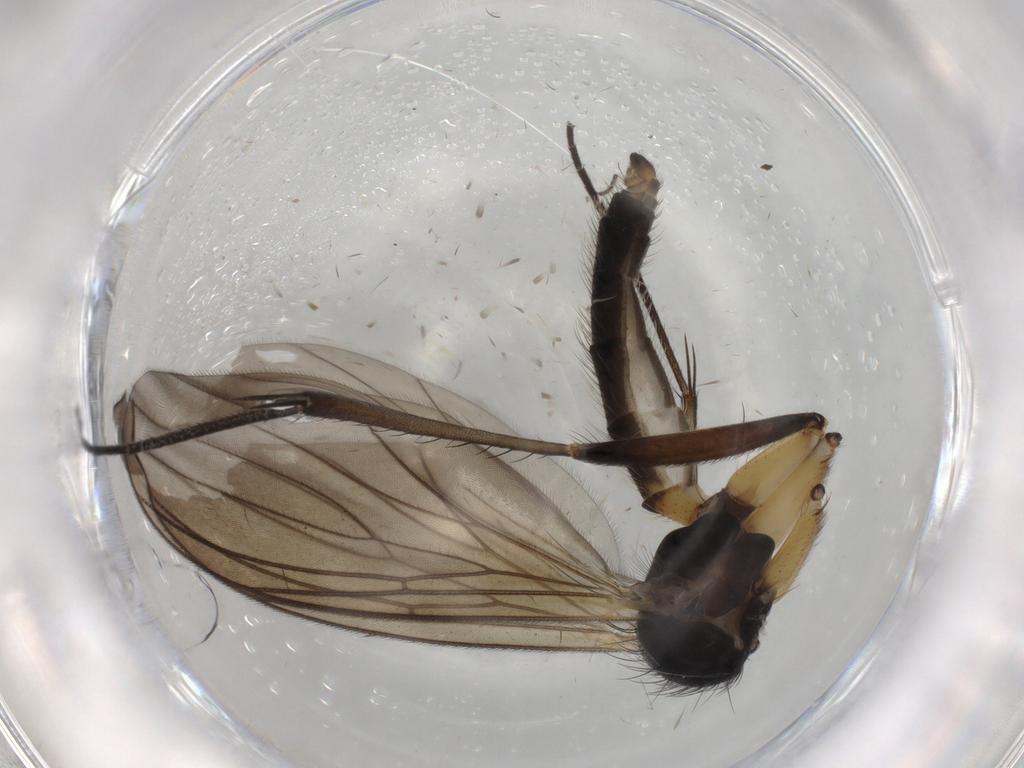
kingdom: Animalia
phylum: Arthropoda
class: Insecta
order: Diptera
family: Mycetophilidae
